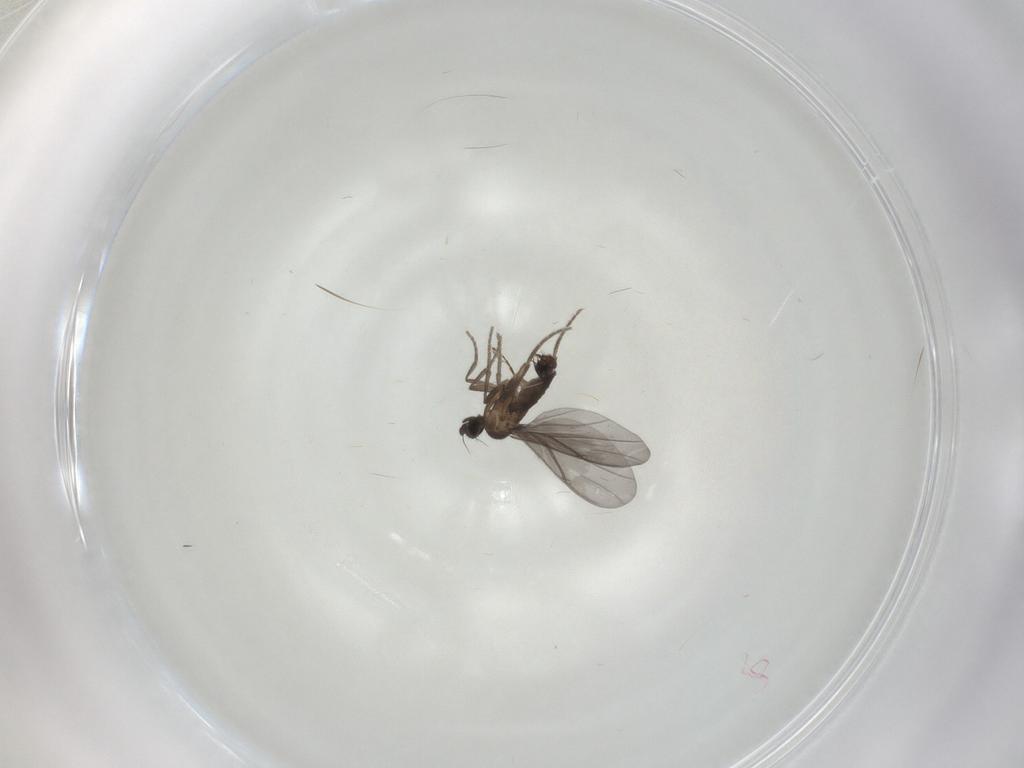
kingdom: Animalia
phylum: Arthropoda
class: Insecta
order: Diptera
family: Phoridae
